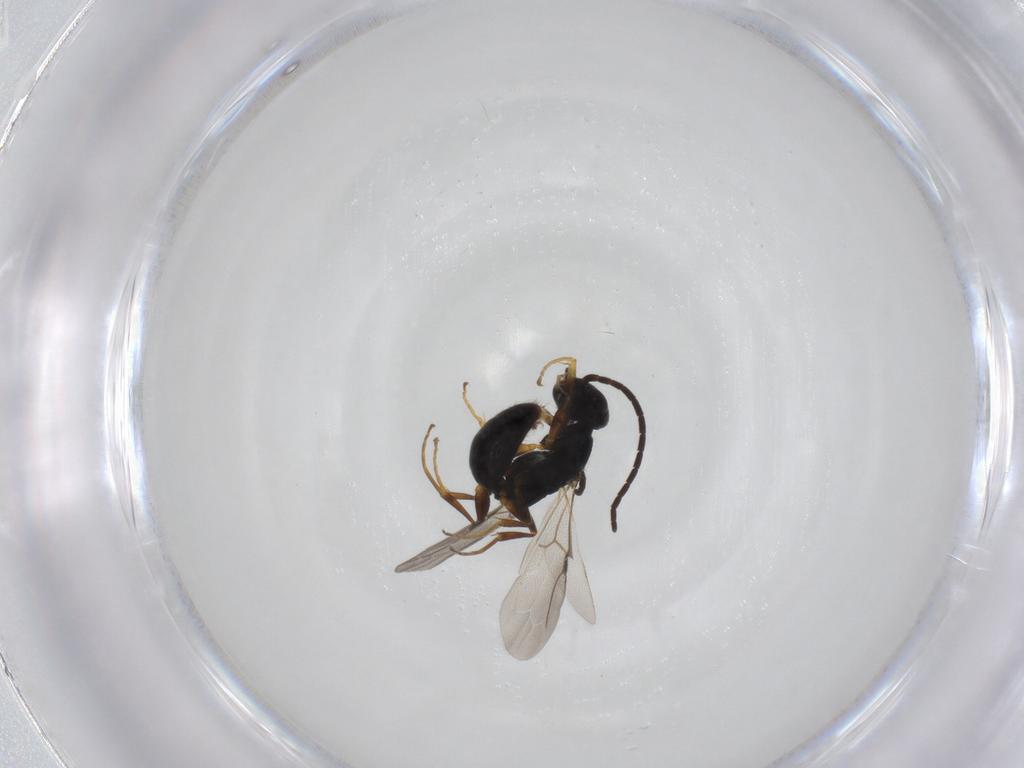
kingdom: Animalia
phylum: Arthropoda
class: Insecta
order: Hymenoptera
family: Bethylidae
